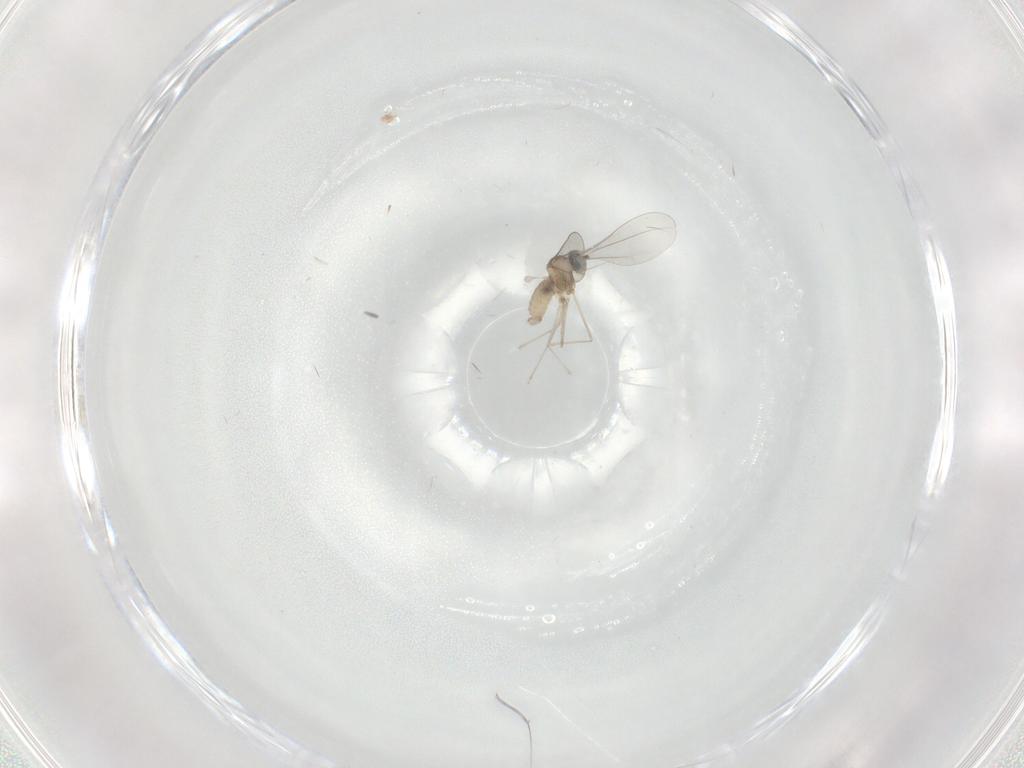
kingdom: Animalia
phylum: Arthropoda
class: Insecta
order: Diptera
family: Cecidomyiidae
